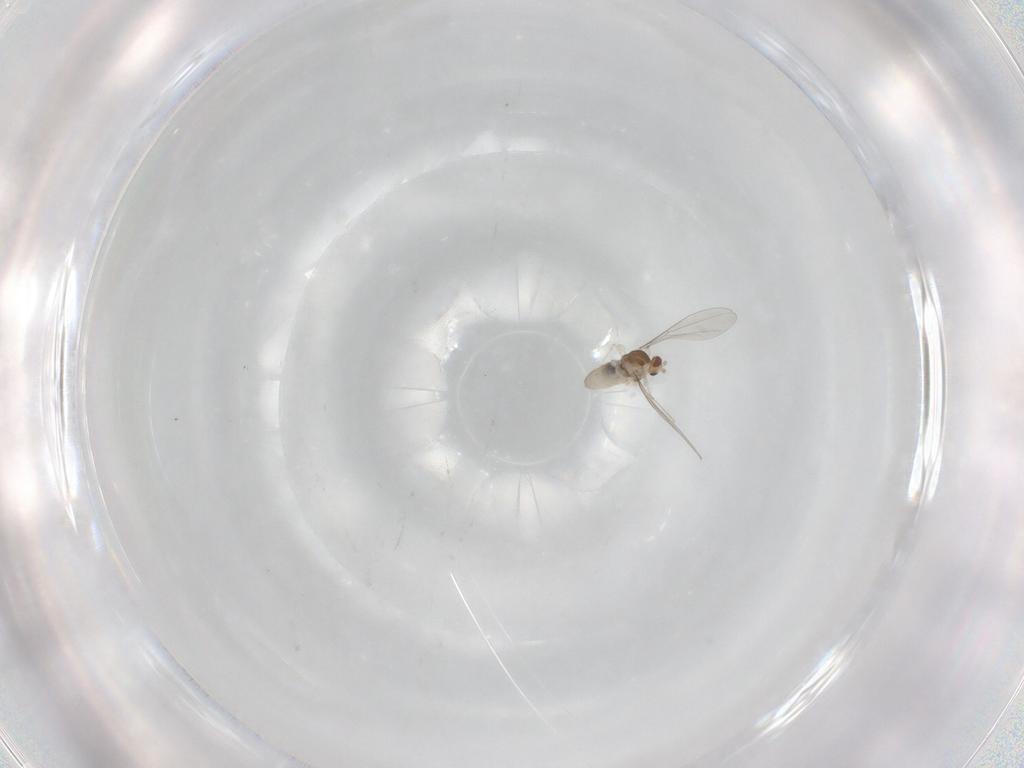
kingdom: Animalia
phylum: Arthropoda
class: Insecta
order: Diptera
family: Cecidomyiidae
